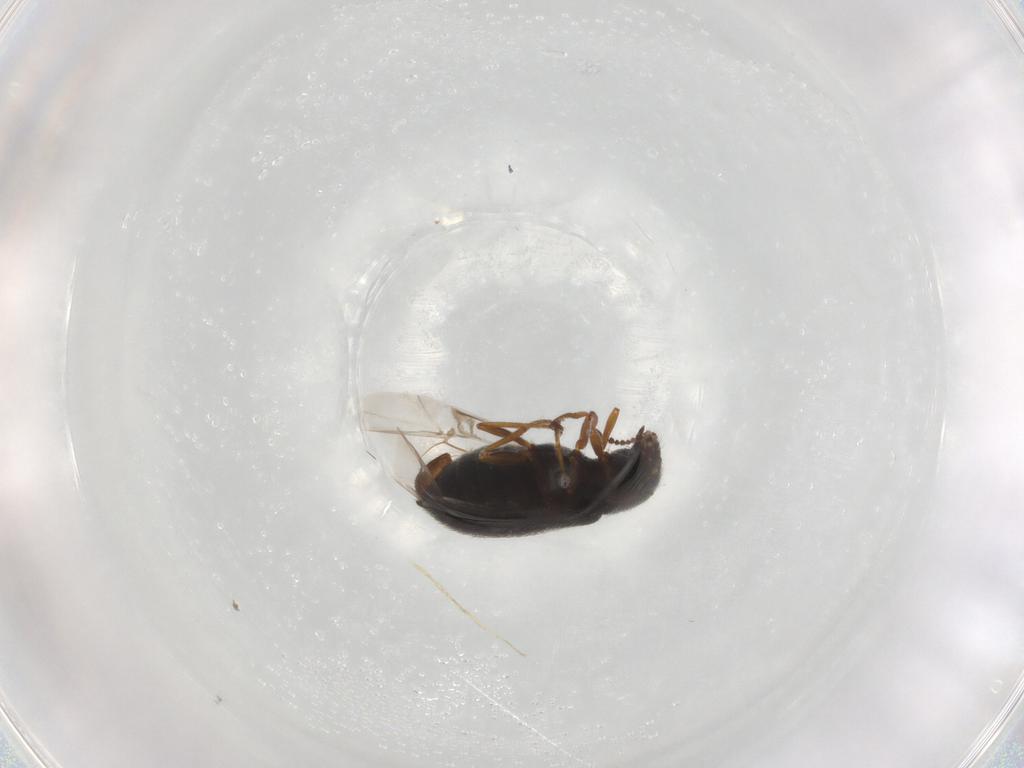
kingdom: Animalia
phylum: Arthropoda
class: Insecta
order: Coleoptera
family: Melyridae
